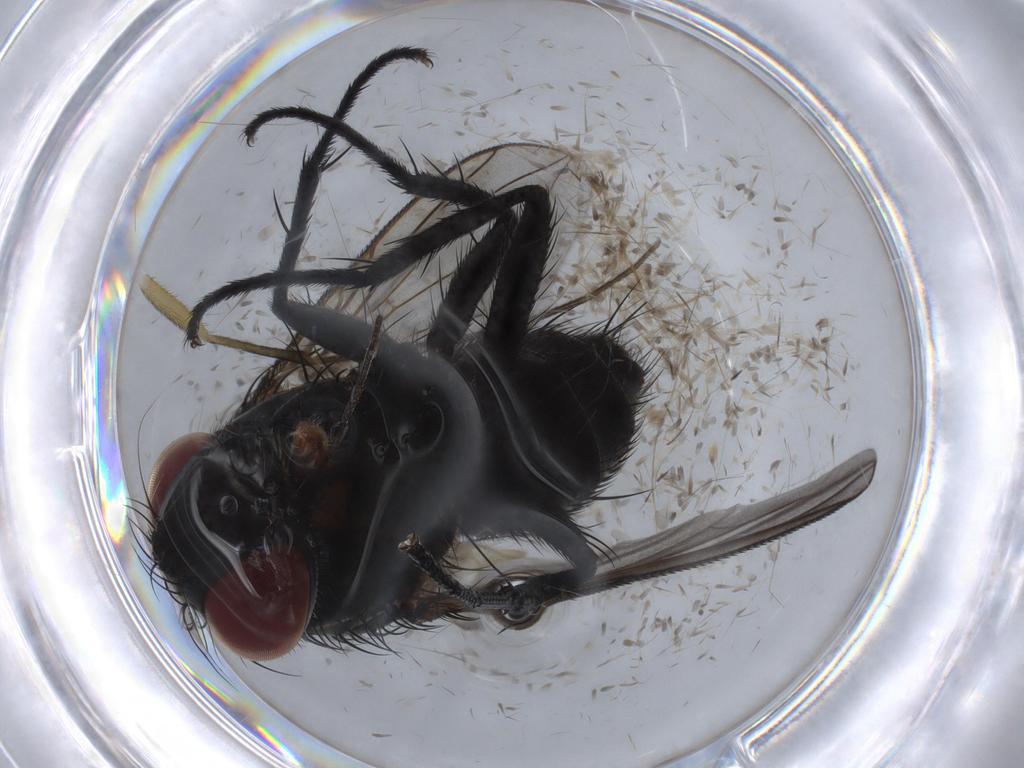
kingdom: Animalia
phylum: Arthropoda
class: Insecta
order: Diptera
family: Tachinidae
